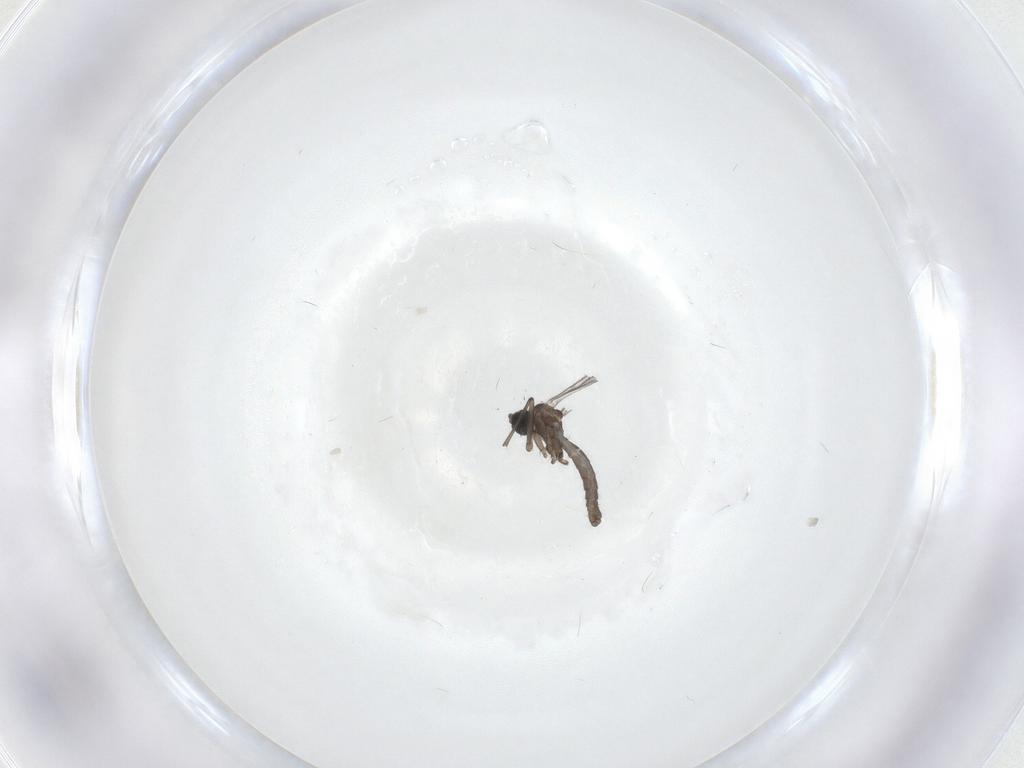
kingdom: Animalia
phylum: Arthropoda
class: Insecta
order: Diptera
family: Sciaridae
